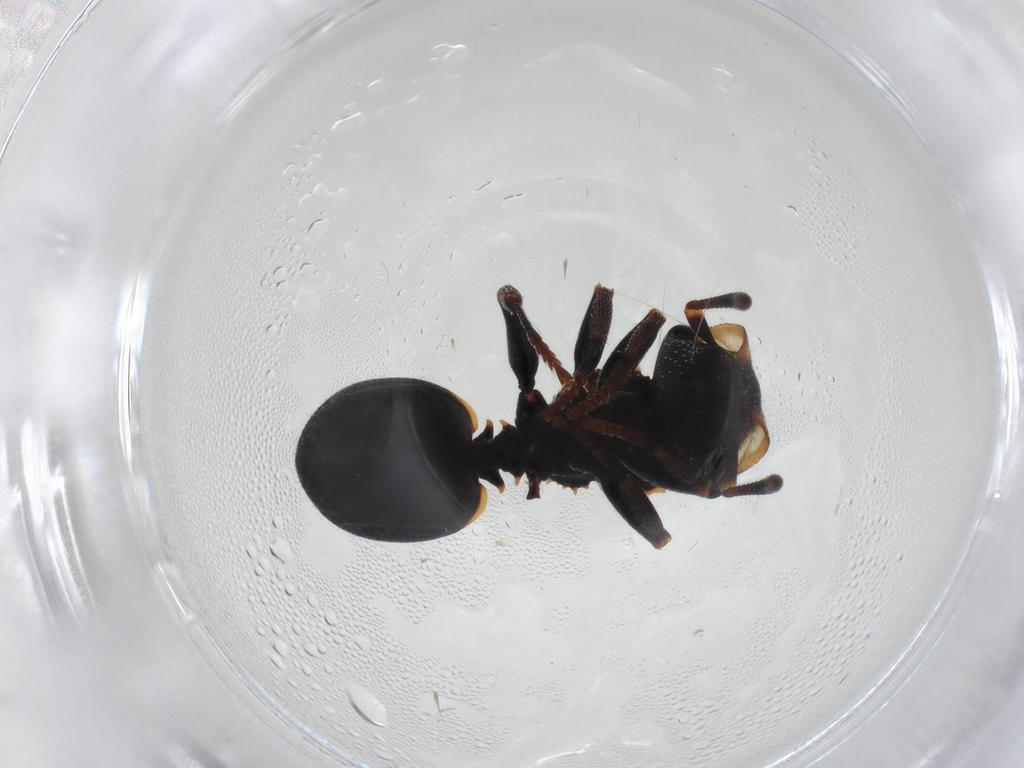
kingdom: Animalia
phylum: Arthropoda
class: Insecta
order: Hymenoptera
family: Formicidae
